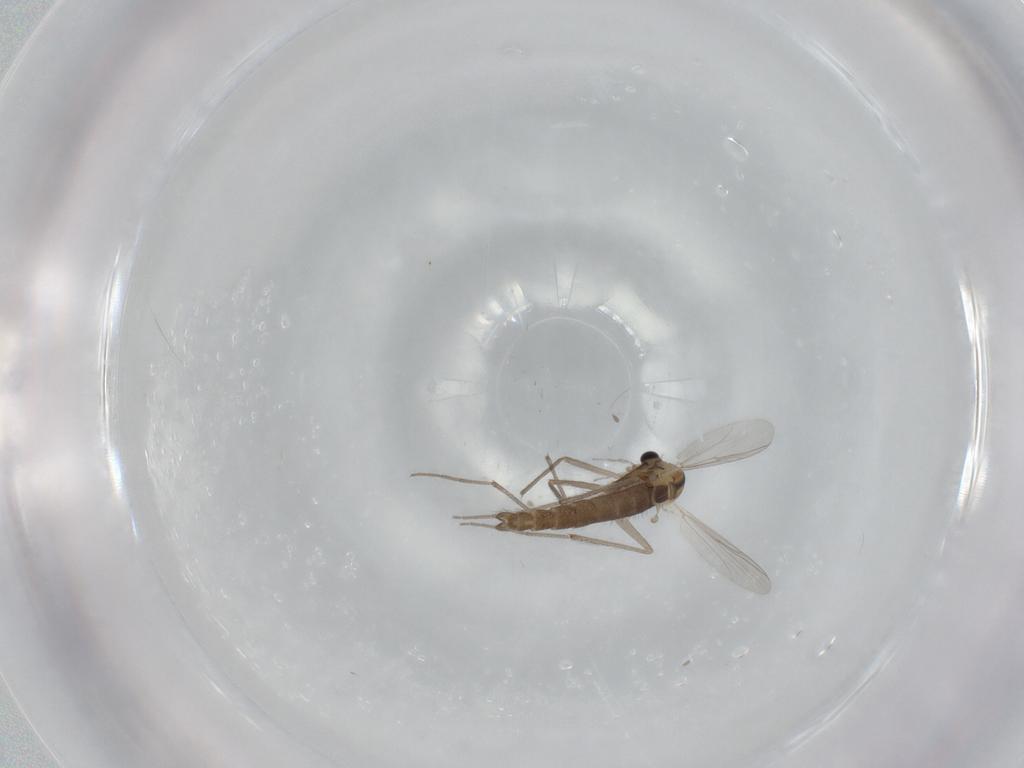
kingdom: Animalia
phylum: Arthropoda
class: Insecta
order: Diptera
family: Chironomidae
